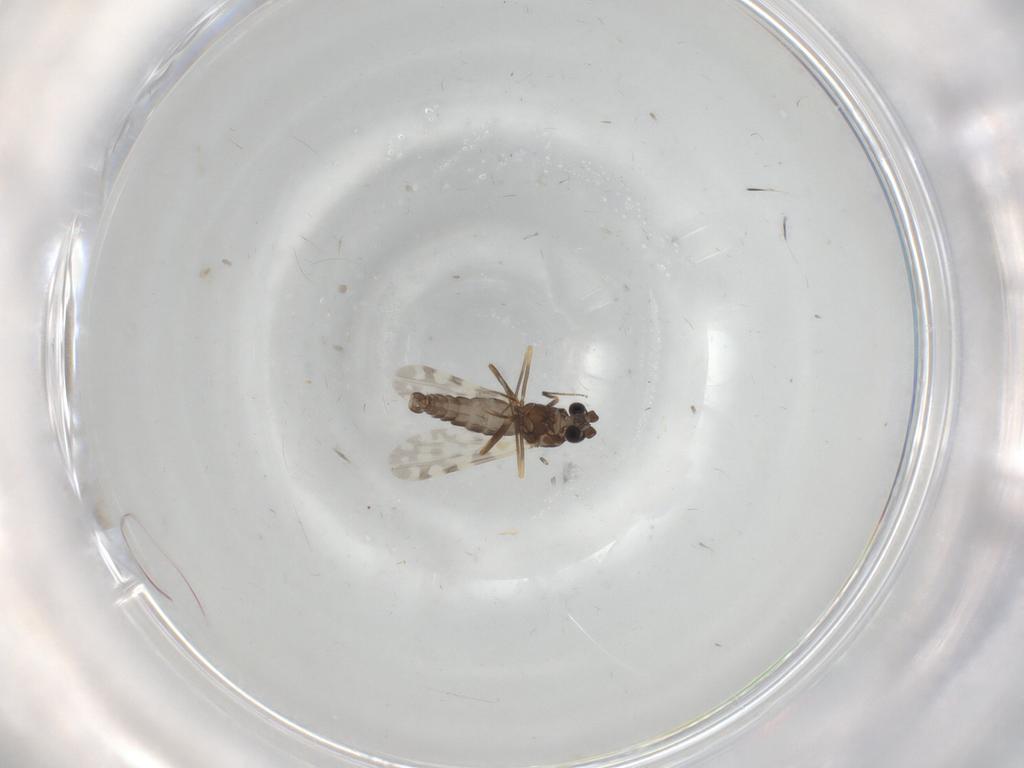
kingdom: Animalia
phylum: Arthropoda
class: Insecta
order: Diptera
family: Ceratopogonidae
